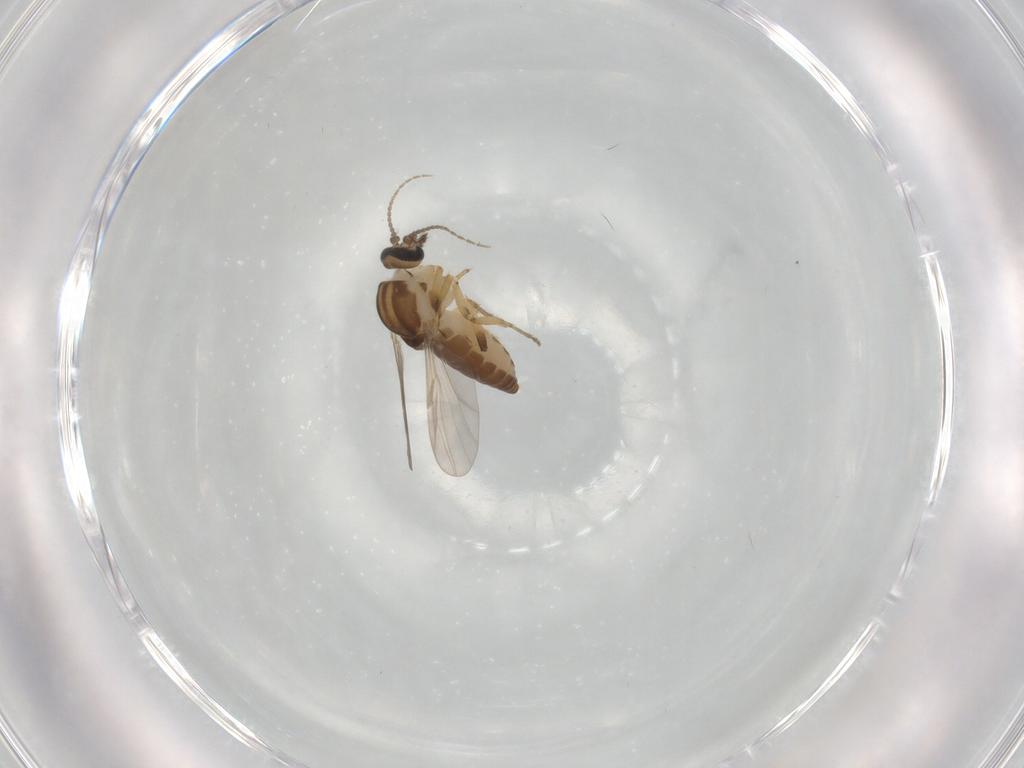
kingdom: Animalia
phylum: Arthropoda
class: Insecta
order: Diptera
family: Ceratopogonidae
